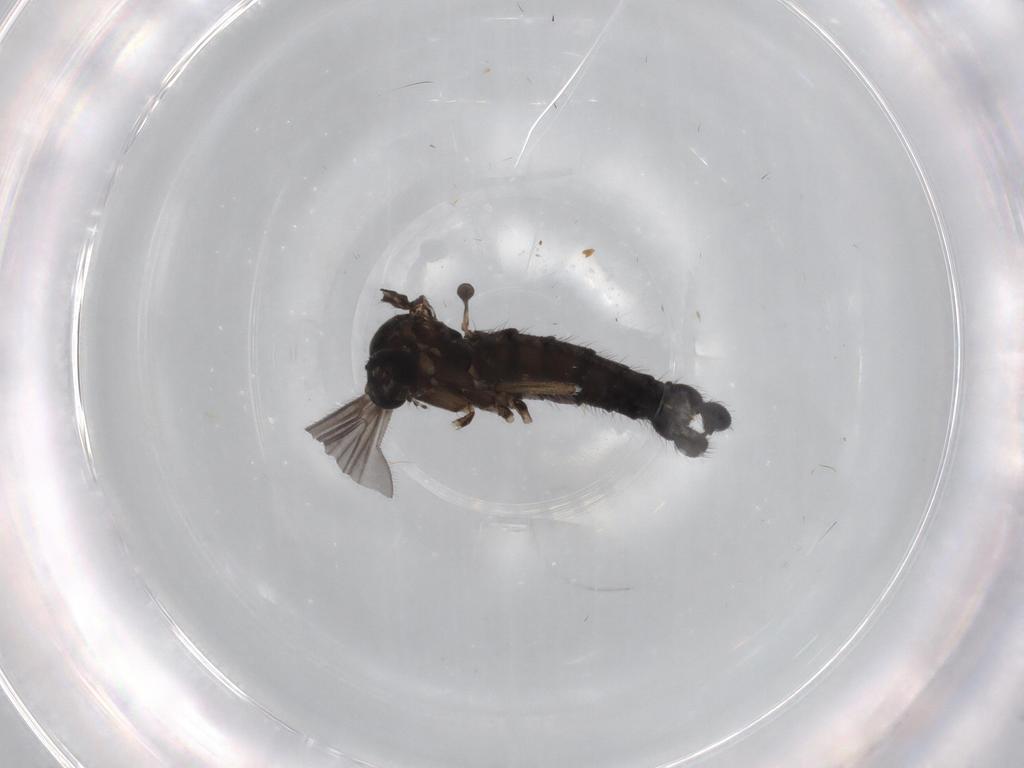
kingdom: Animalia
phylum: Arthropoda
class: Insecta
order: Diptera
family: Sciaridae
